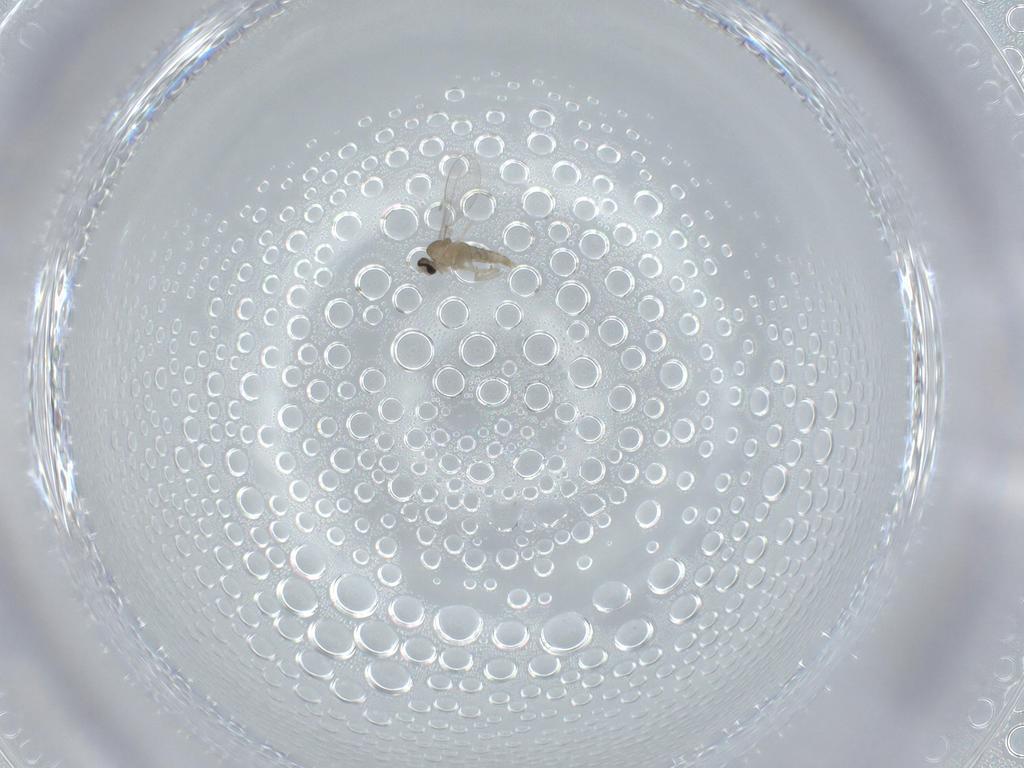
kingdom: Animalia
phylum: Arthropoda
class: Insecta
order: Diptera
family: Cecidomyiidae
